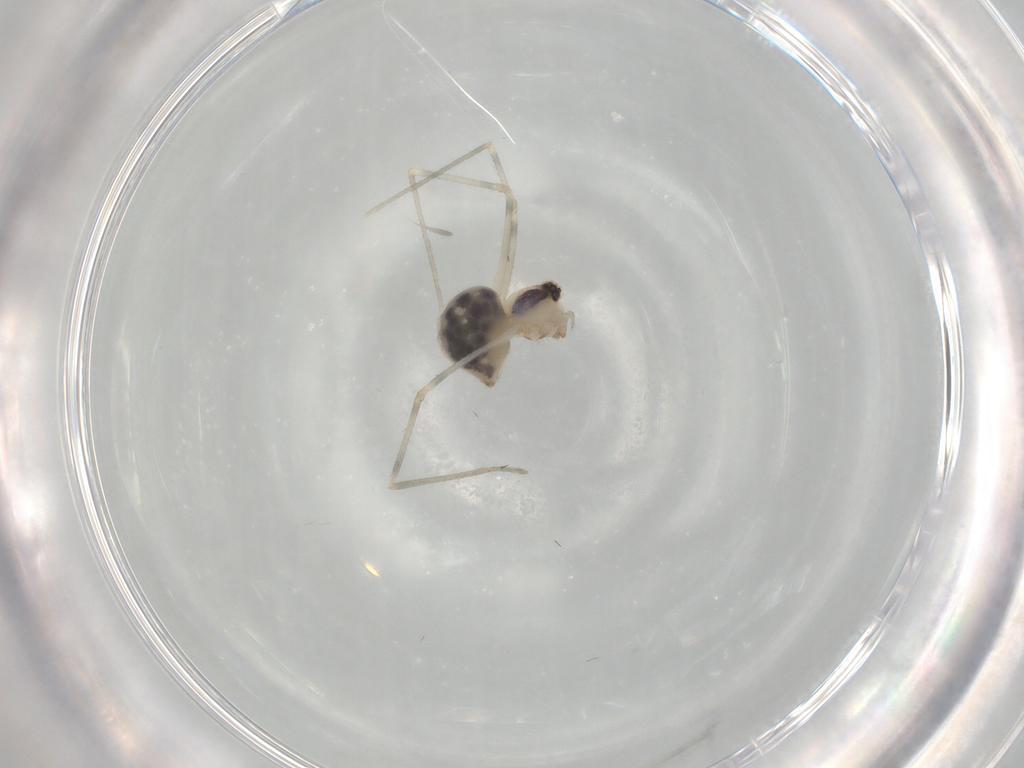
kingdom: Animalia
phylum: Arthropoda
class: Arachnida
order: Araneae
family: Pholcidae
